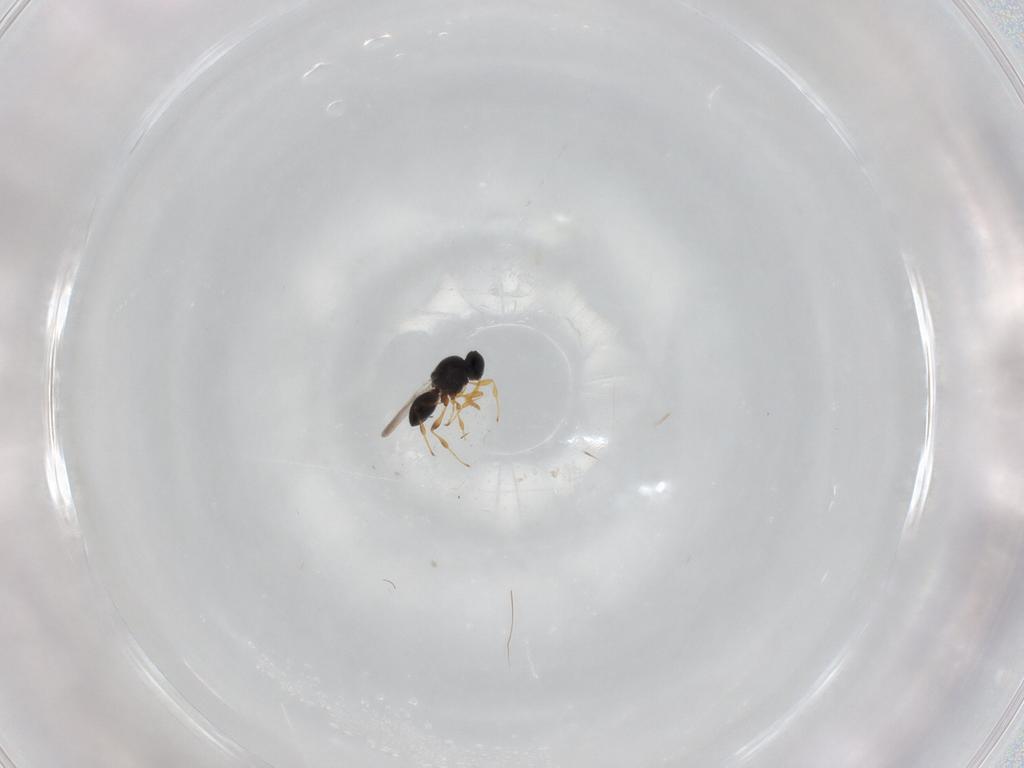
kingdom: Animalia
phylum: Arthropoda
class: Insecta
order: Hymenoptera
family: Platygastridae
